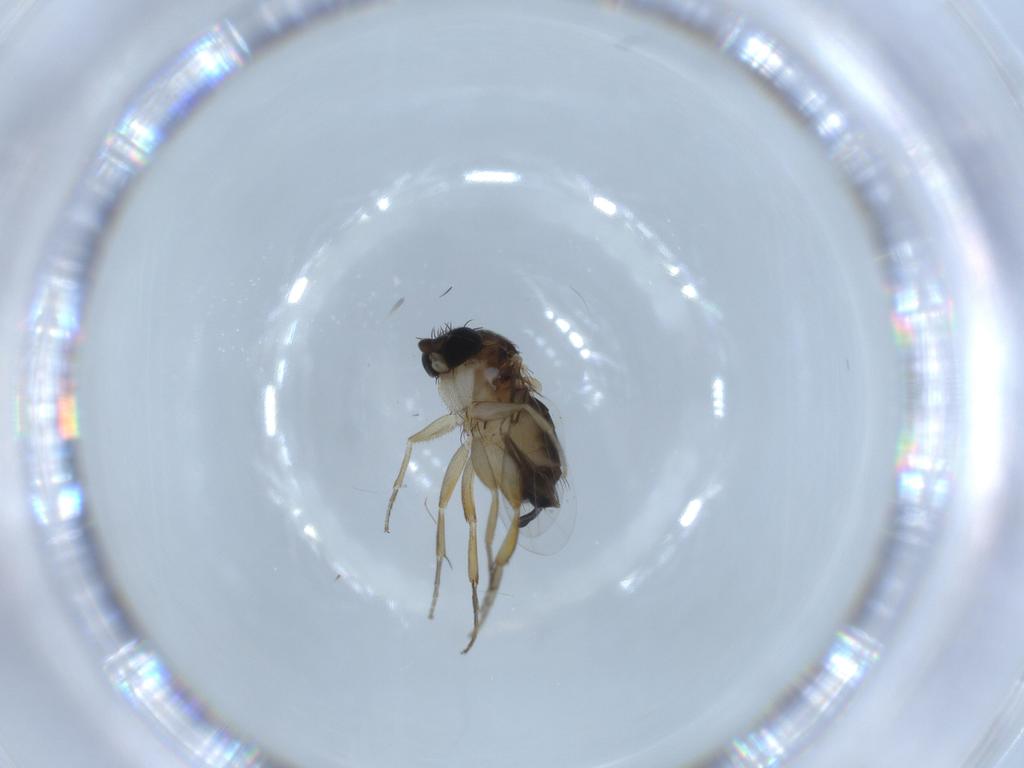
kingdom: Animalia
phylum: Arthropoda
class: Insecta
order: Diptera
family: Phoridae
